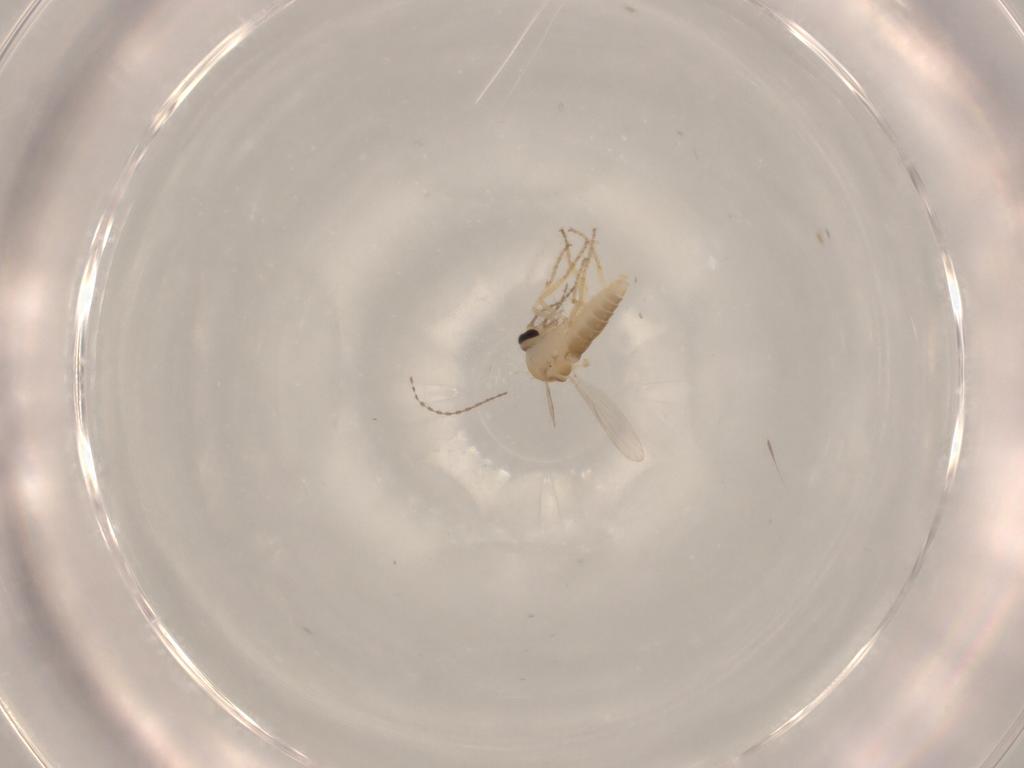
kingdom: Animalia
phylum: Arthropoda
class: Insecta
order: Diptera
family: Ceratopogonidae
